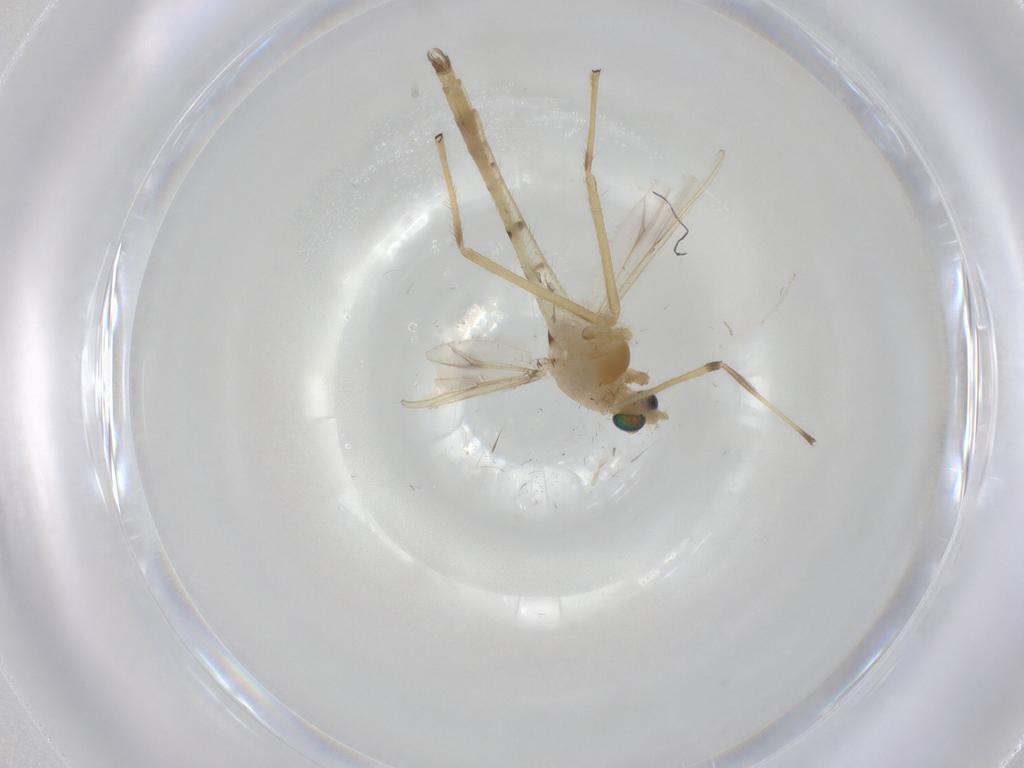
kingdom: Animalia
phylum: Arthropoda
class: Insecta
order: Diptera
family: Chironomidae
